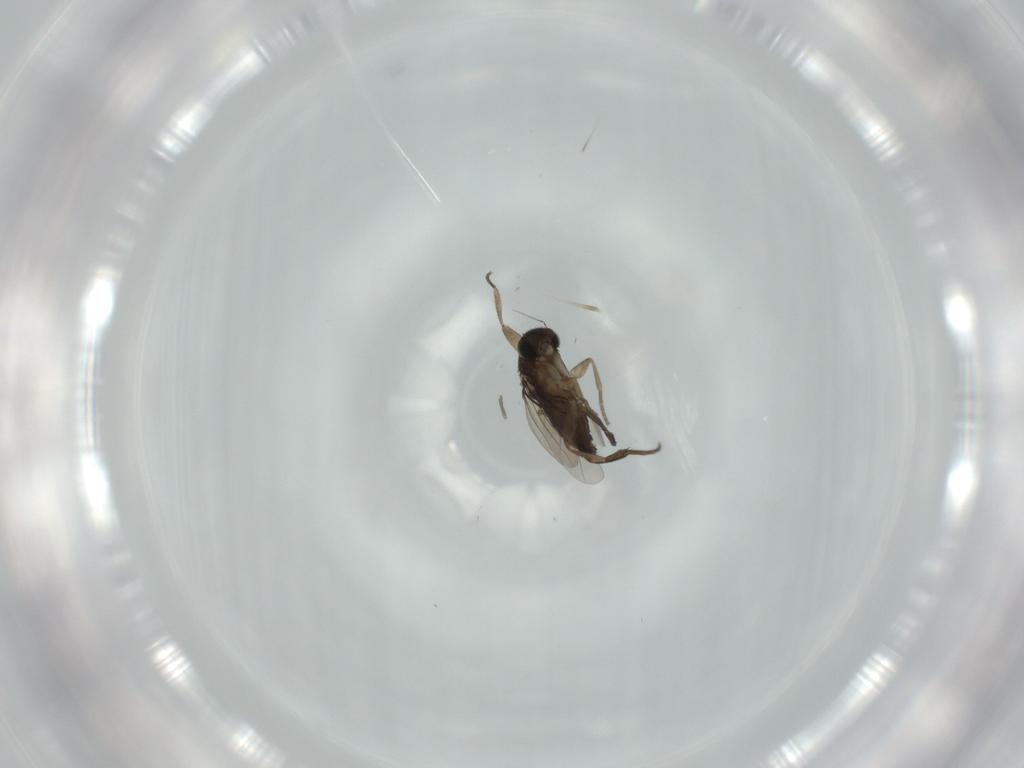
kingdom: Animalia
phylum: Arthropoda
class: Insecta
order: Diptera
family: Phoridae
